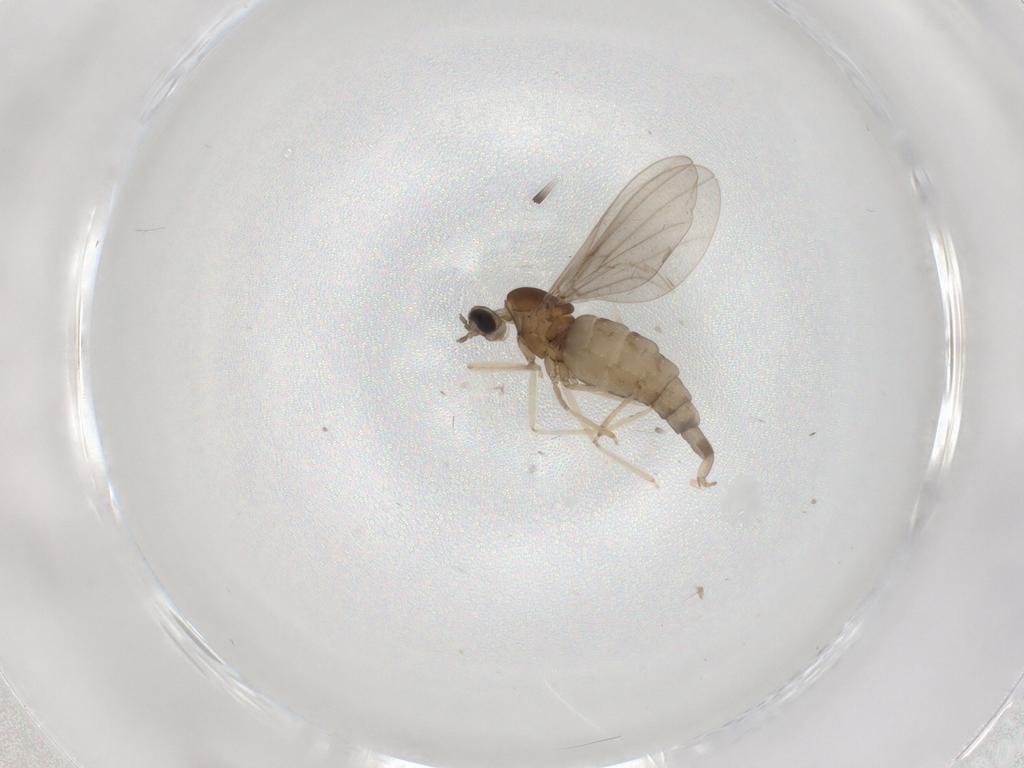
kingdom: Animalia
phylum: Arthropoda
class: Insecta
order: Diptera
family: Cecidomyiidae
